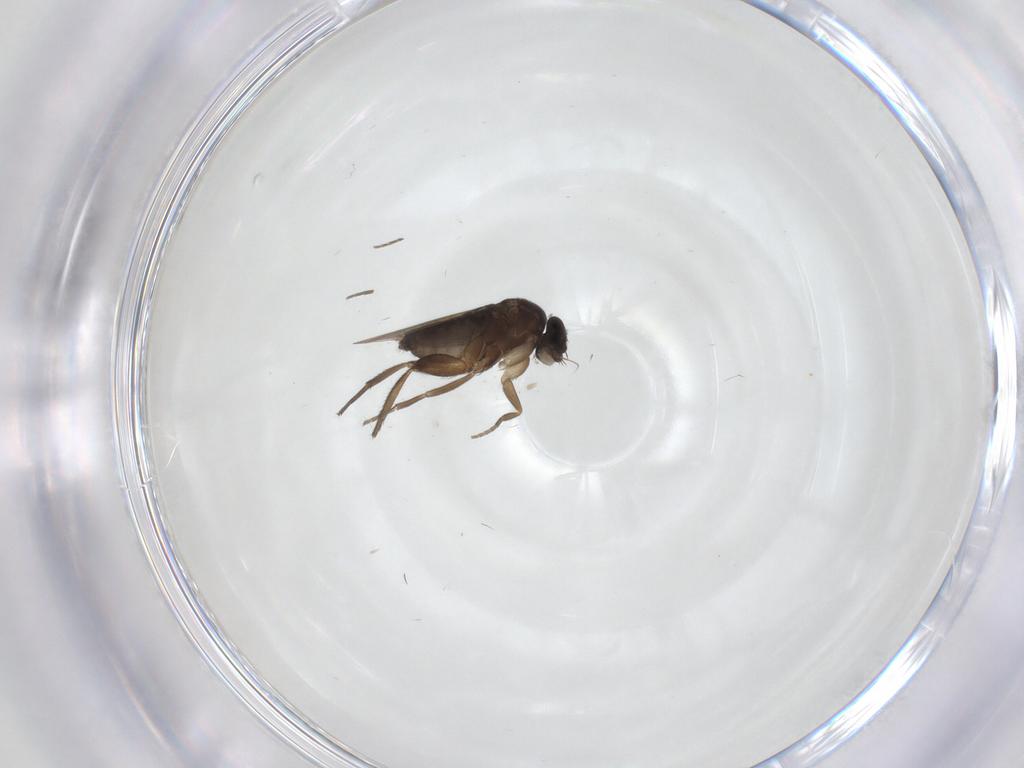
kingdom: Animalia
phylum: Arthropoda
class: Insecta
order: Diptera
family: Phoridae
